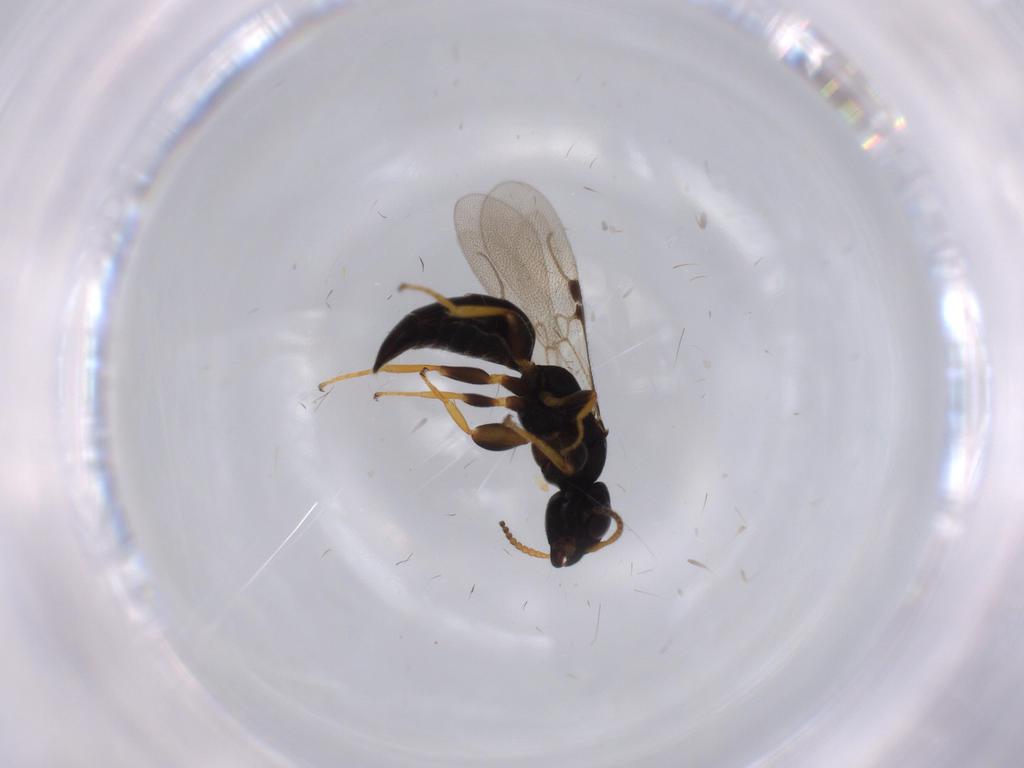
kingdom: Animalia
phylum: Arthropoda
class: Insecta
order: Hymenoptera
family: Bethylidae
